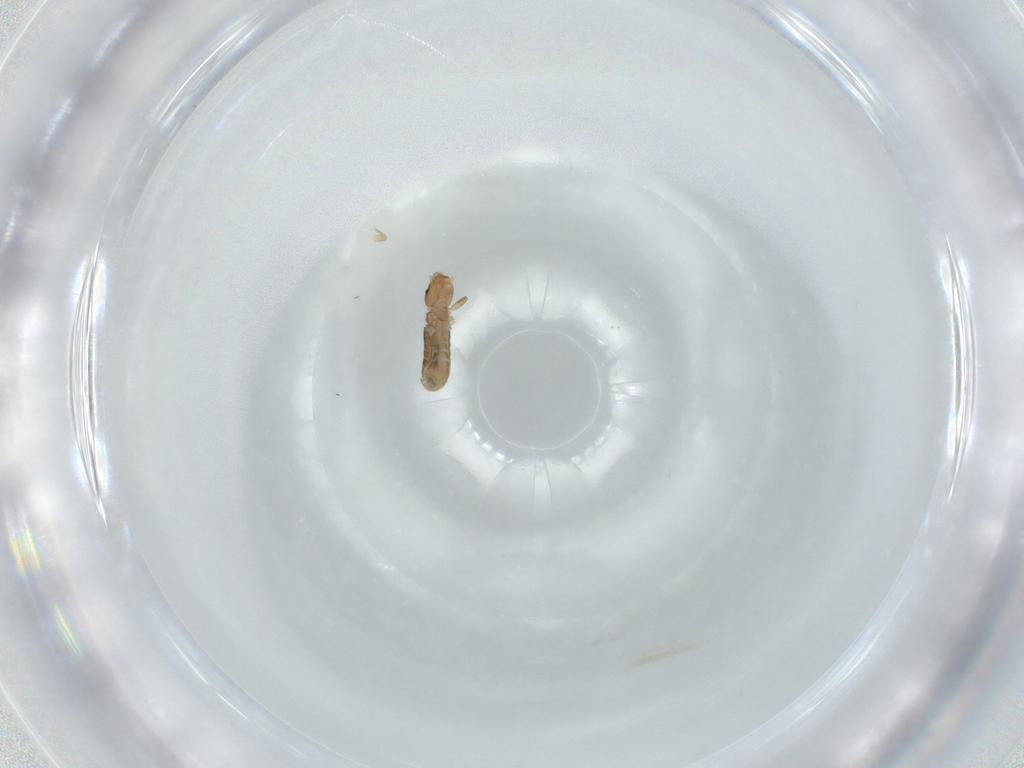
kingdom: Animalia
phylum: Arthropoda
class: Insecta
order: Psocodea
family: Liposcelididae
